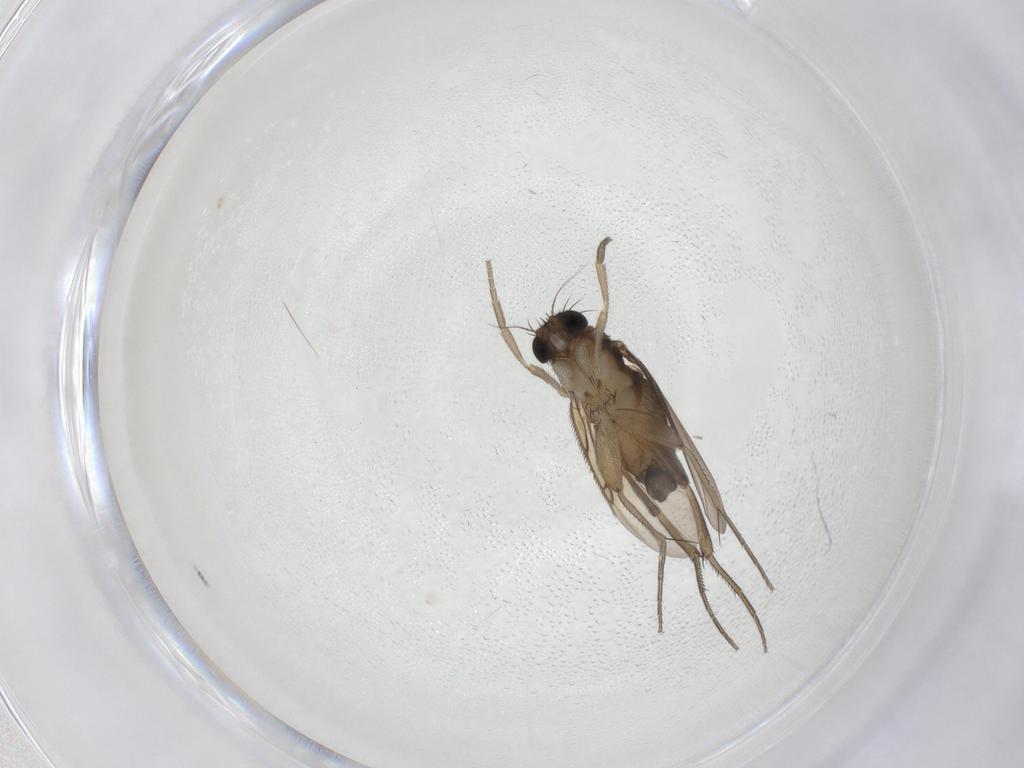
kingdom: Animalia
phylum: Arthropoda
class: Insecta
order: Diptera
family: Phoridae
